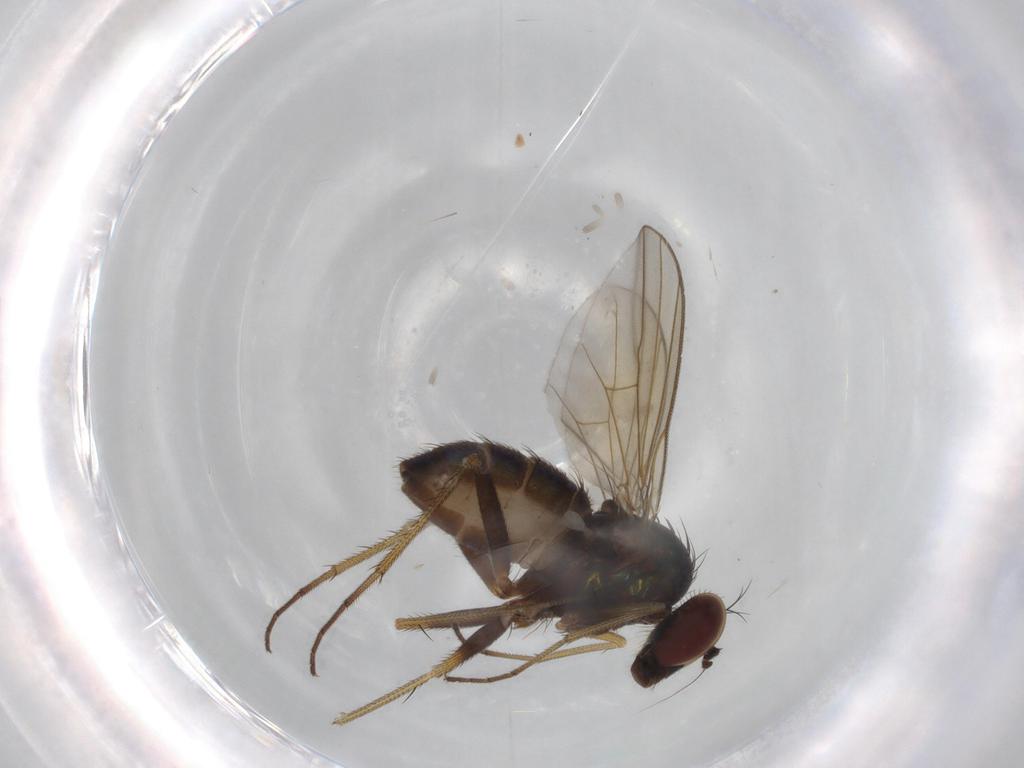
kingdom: Animalia
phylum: Arthropoda
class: Insecta
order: Diptera
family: Dolichopodidae
